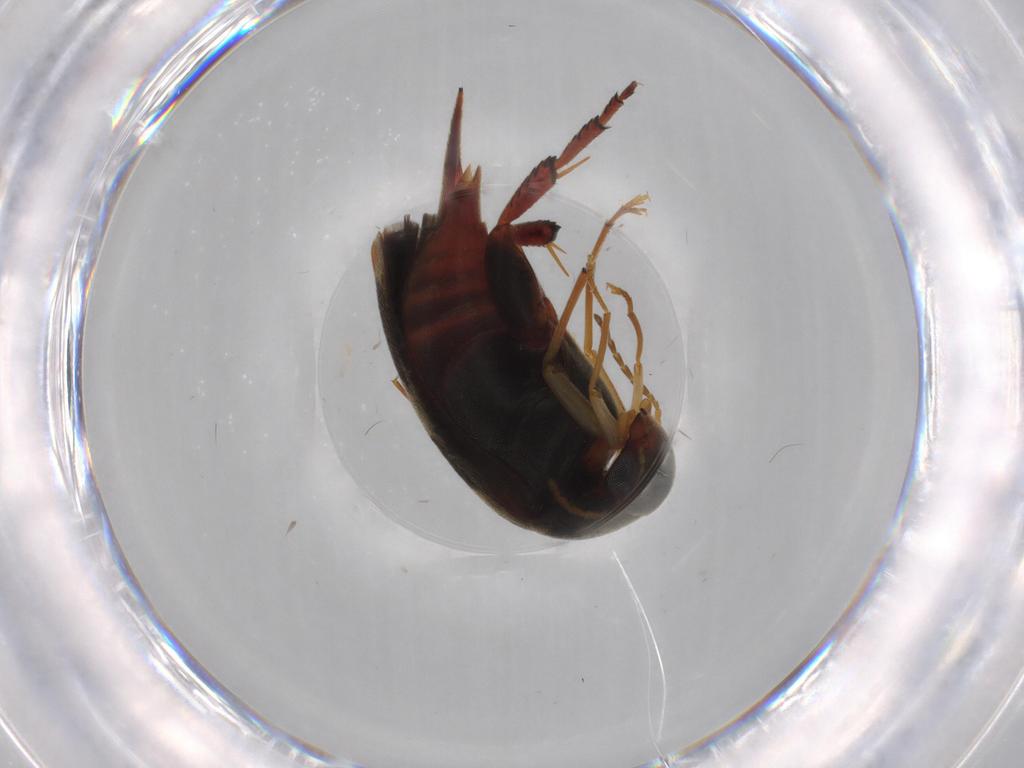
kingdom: Animalia
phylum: Arthropoda
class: Insecta
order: Coleoptera
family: Mordellidae
